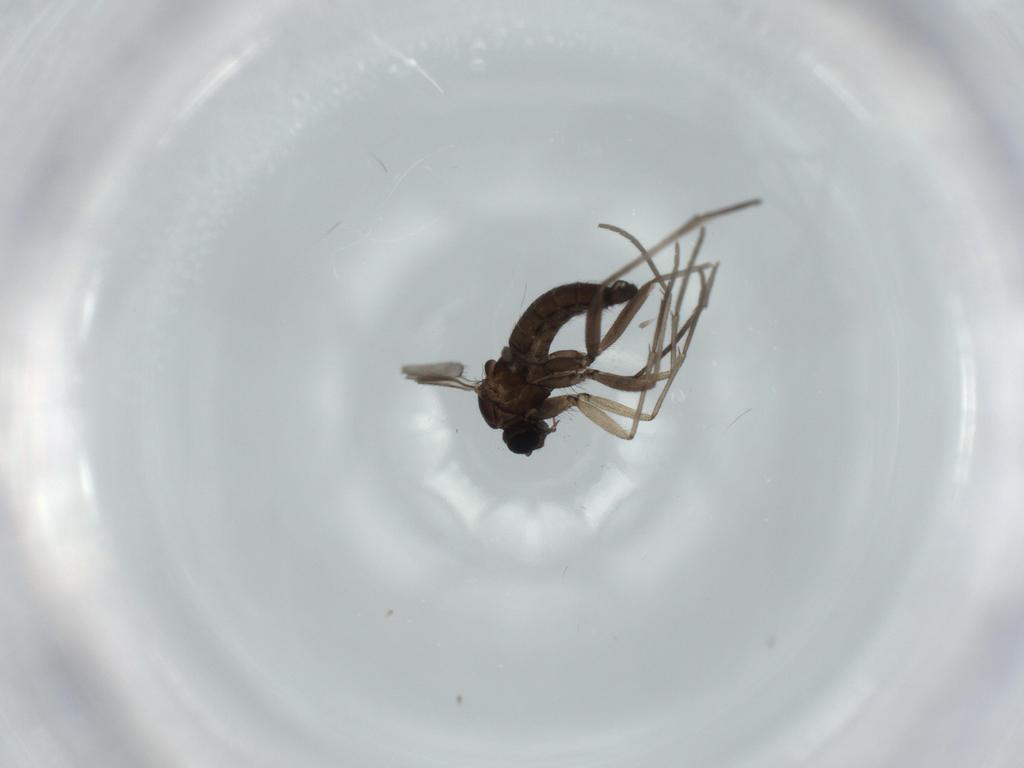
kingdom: Animalia
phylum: Arthropoda
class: Insecta
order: Diptera
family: Sciaridae
